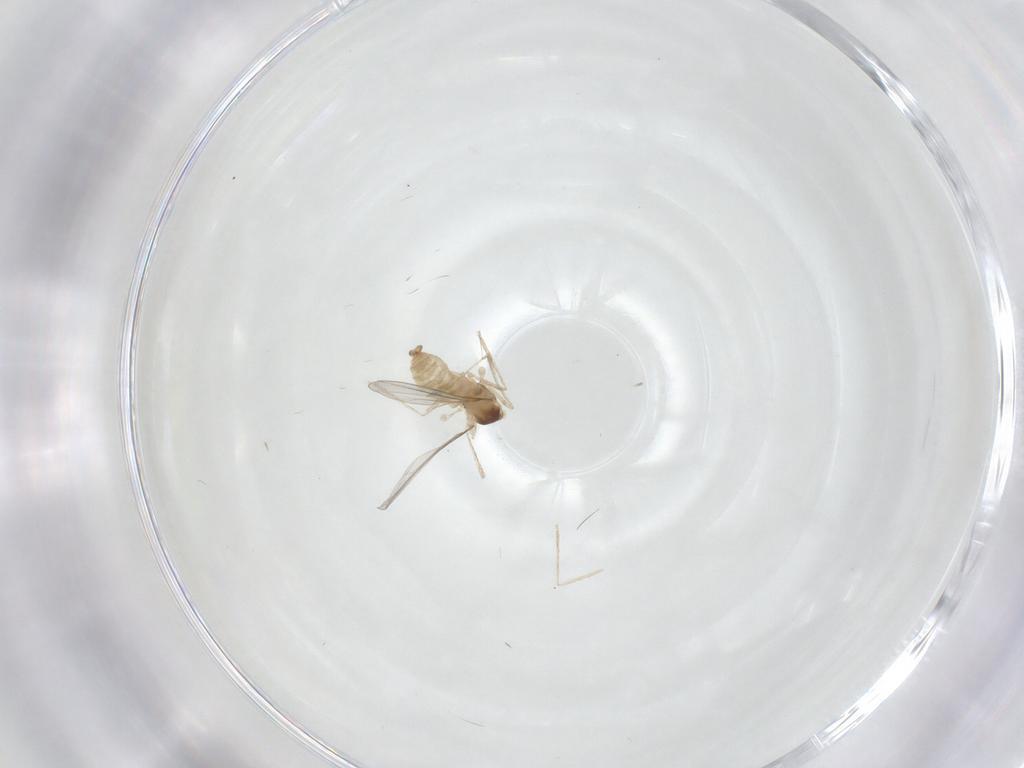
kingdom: Animalia
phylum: Arthropoda
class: Insecta
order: Diptera
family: Cecidomyiidae
